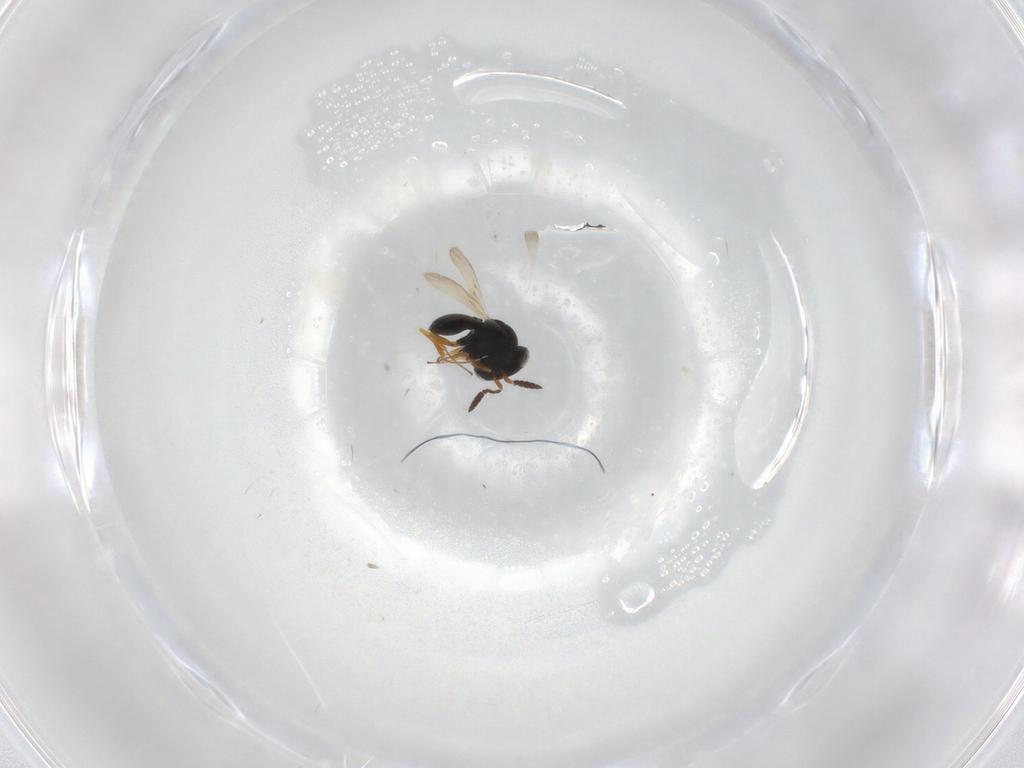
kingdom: Animalia
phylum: Arthropoda
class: Insecta
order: Hymenoptera
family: Scelionidae
